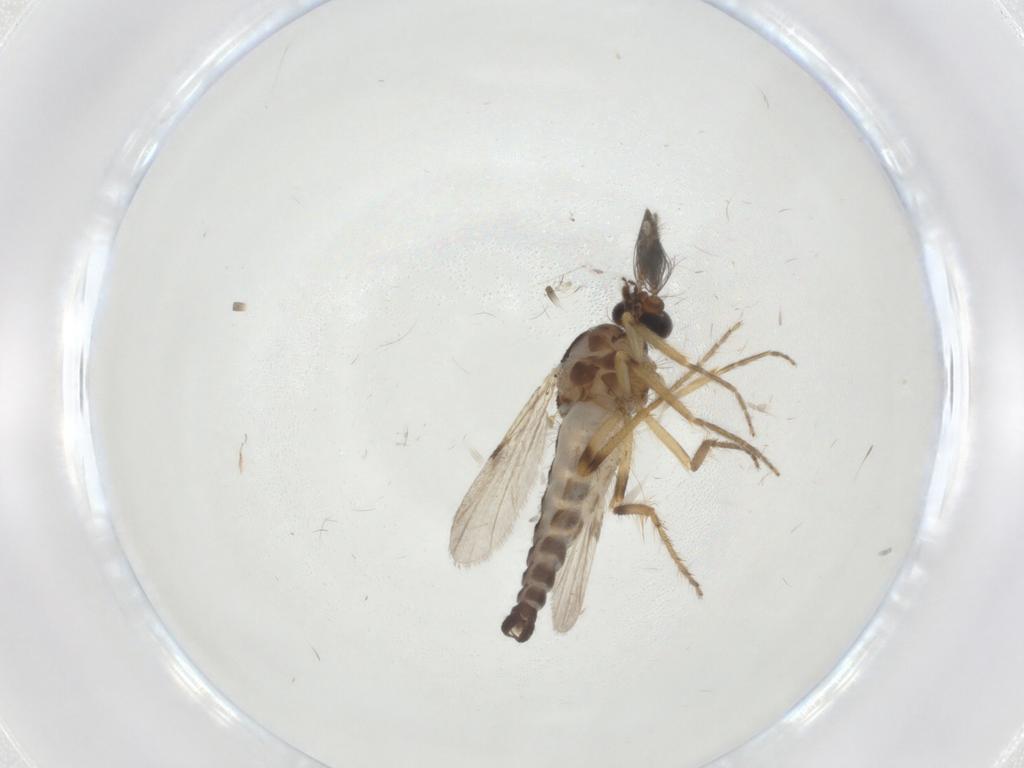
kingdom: Animalia
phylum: Arthropoda
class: Insecta
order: Diptera
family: Ceratopogonidae
